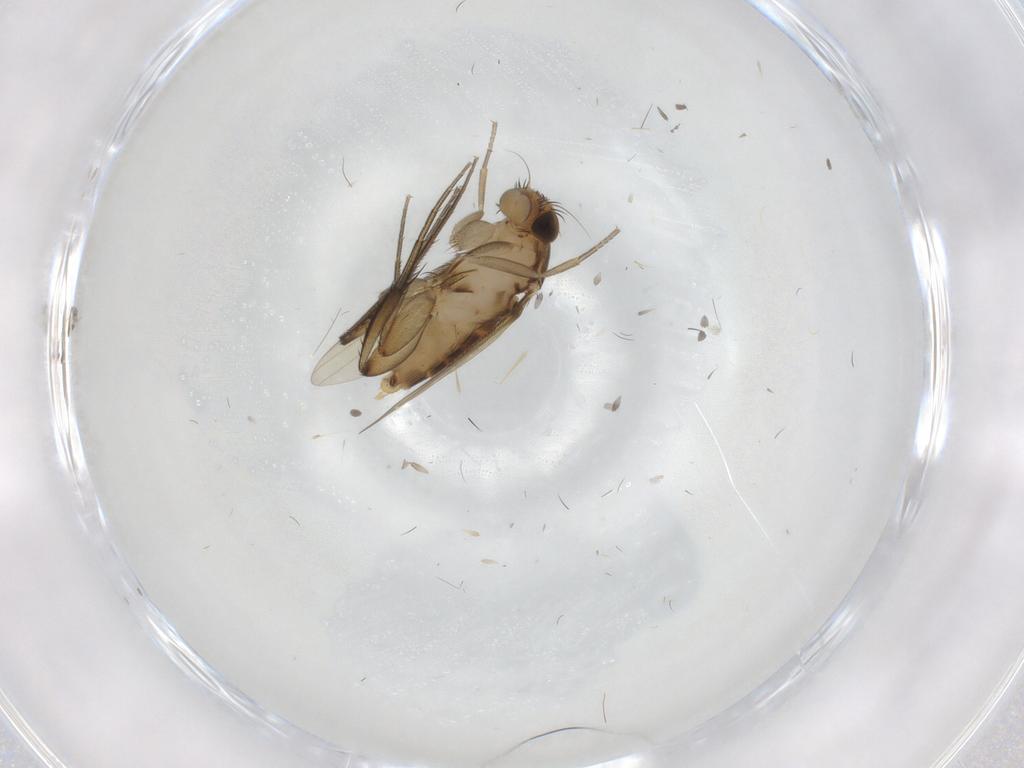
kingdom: Animalia
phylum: Arthropoda
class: Insecta
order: Diptera
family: Phoridae
